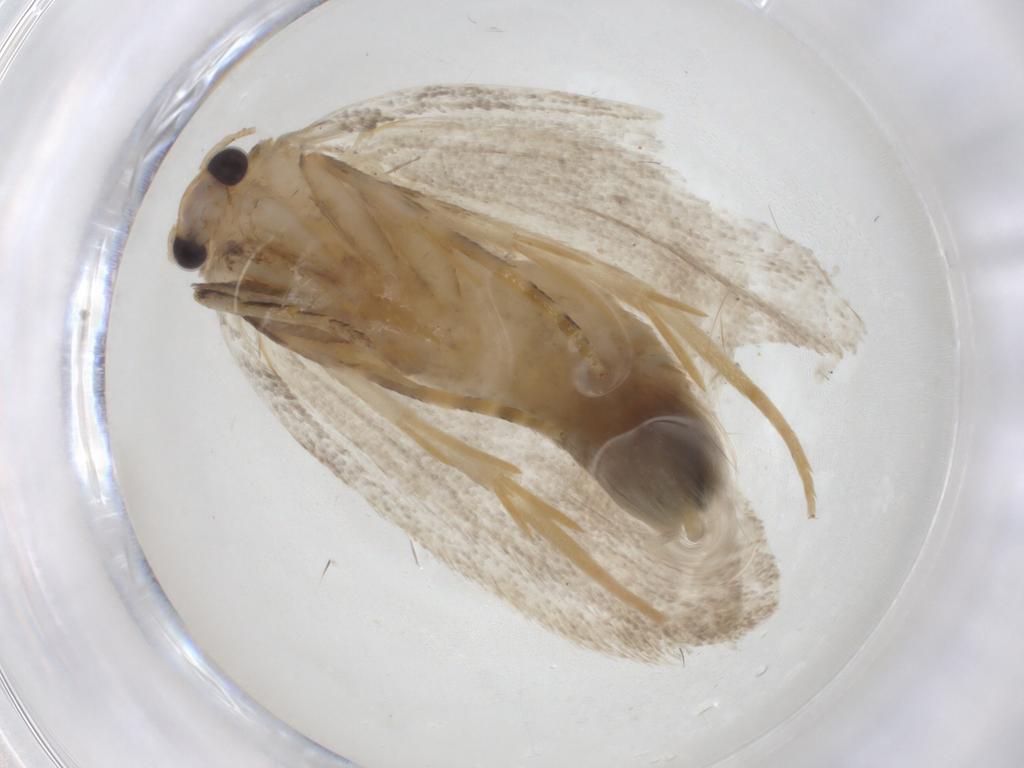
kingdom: Animalia
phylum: Arthropoda
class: Insecta
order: Lepidoptera
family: Tineidae
